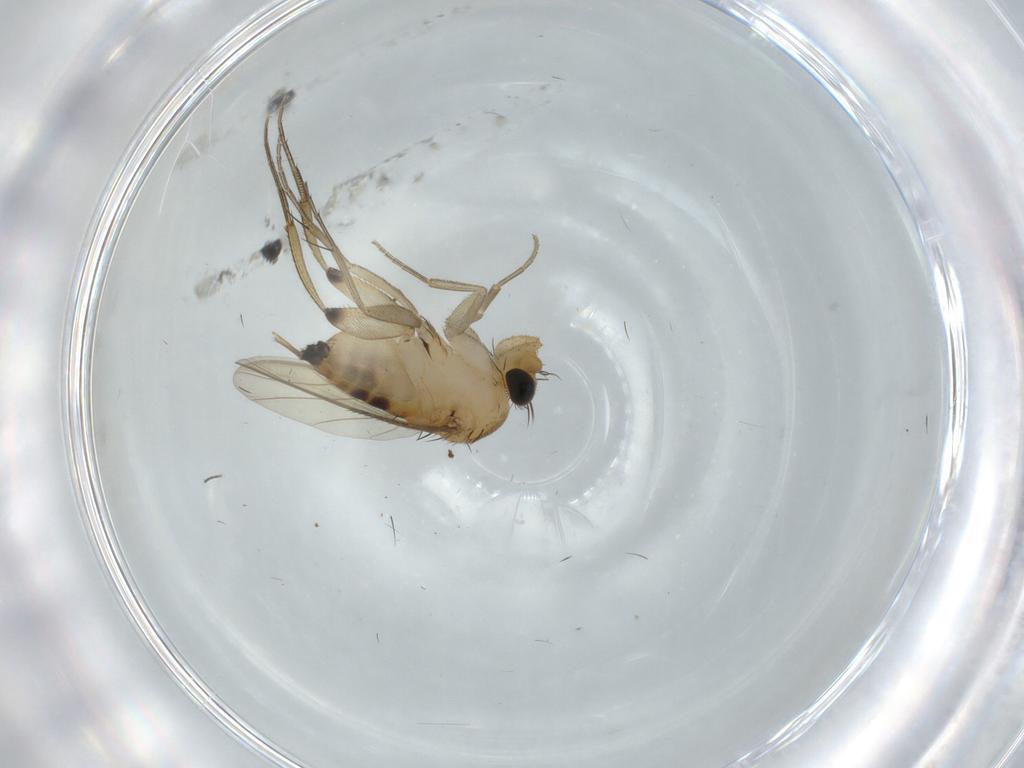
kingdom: Animalia
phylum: Arthropoda
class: Insecta
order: Diptera
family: Phoridae
